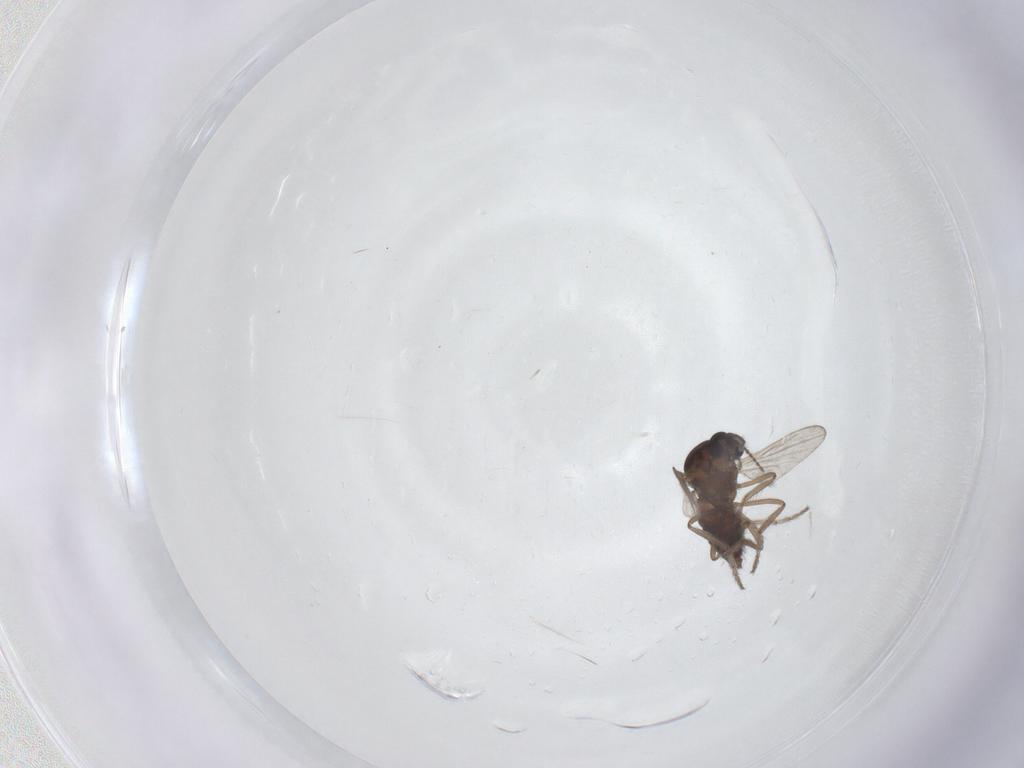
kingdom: Animalia
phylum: Arthropoda
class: Insecta
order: Diptera
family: Ceratopogonidae
